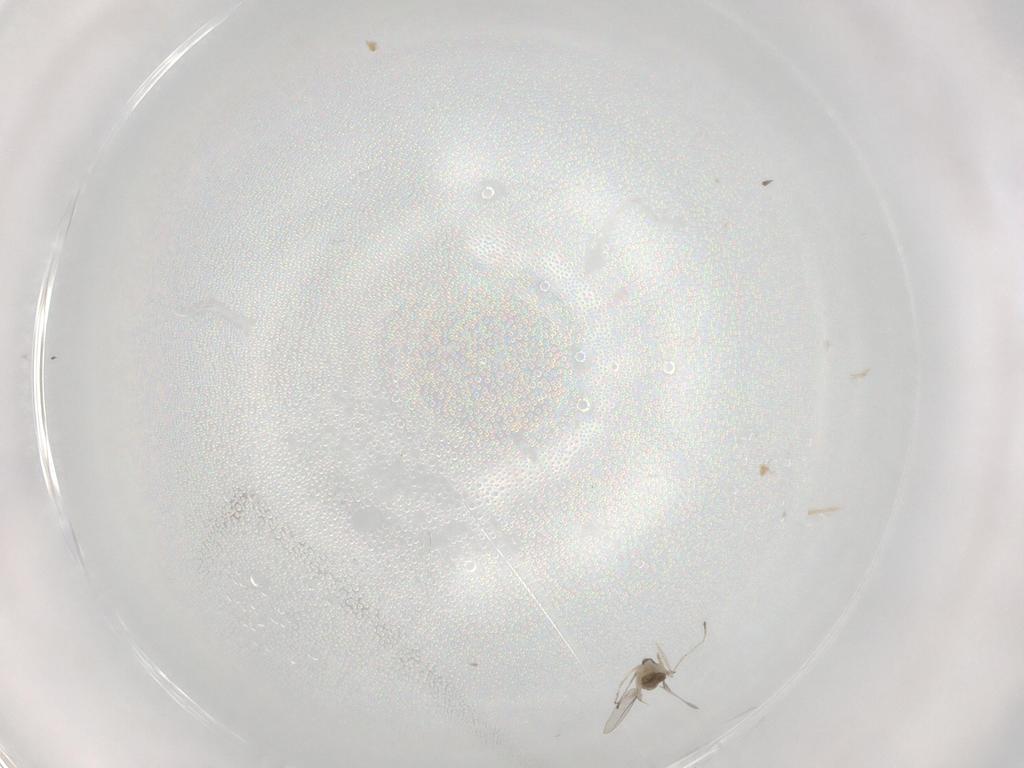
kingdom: Animalia
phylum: Arthropoda
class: Insecta
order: Diptera
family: Cecidomyiidae
